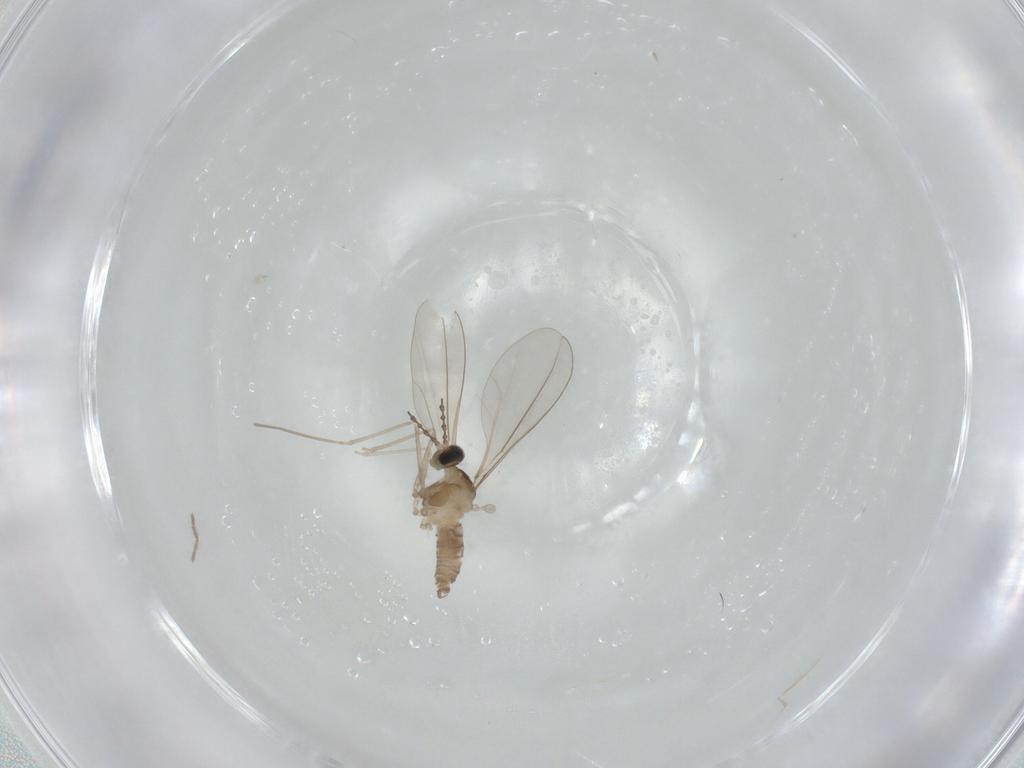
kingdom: Animalia
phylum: Arthropoda
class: Insecta
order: Diptera
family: Cecidomyiidae
